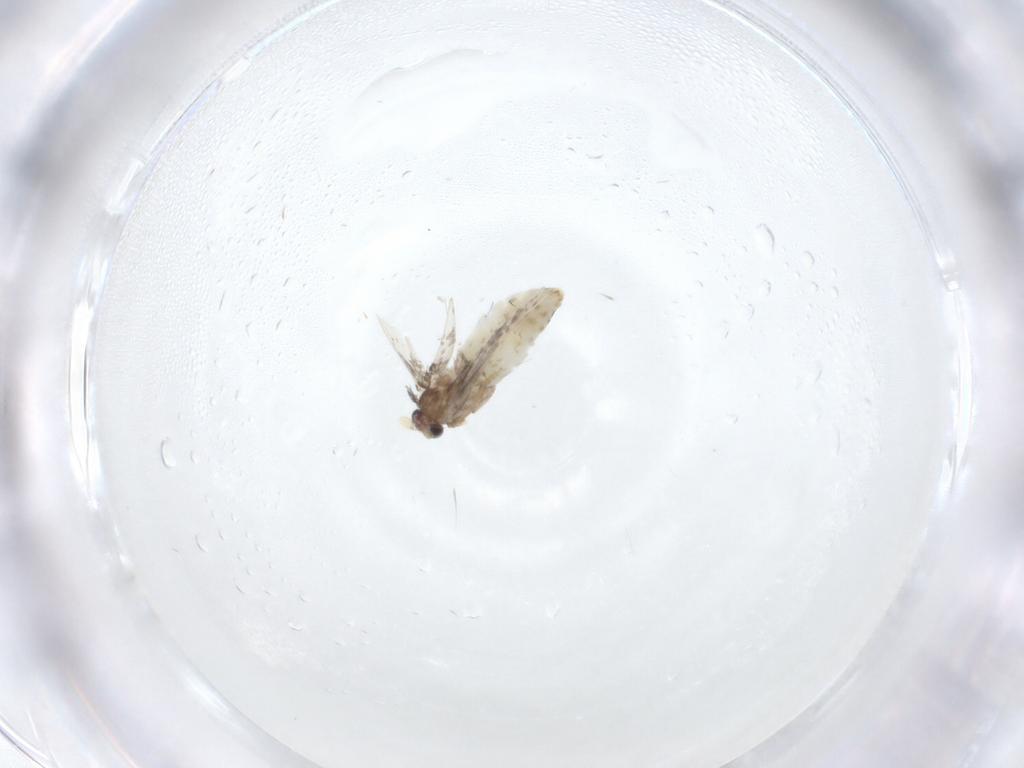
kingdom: Animalia
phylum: Arthropoda
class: Insecta
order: Lepidoptera
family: Nepticulidae
